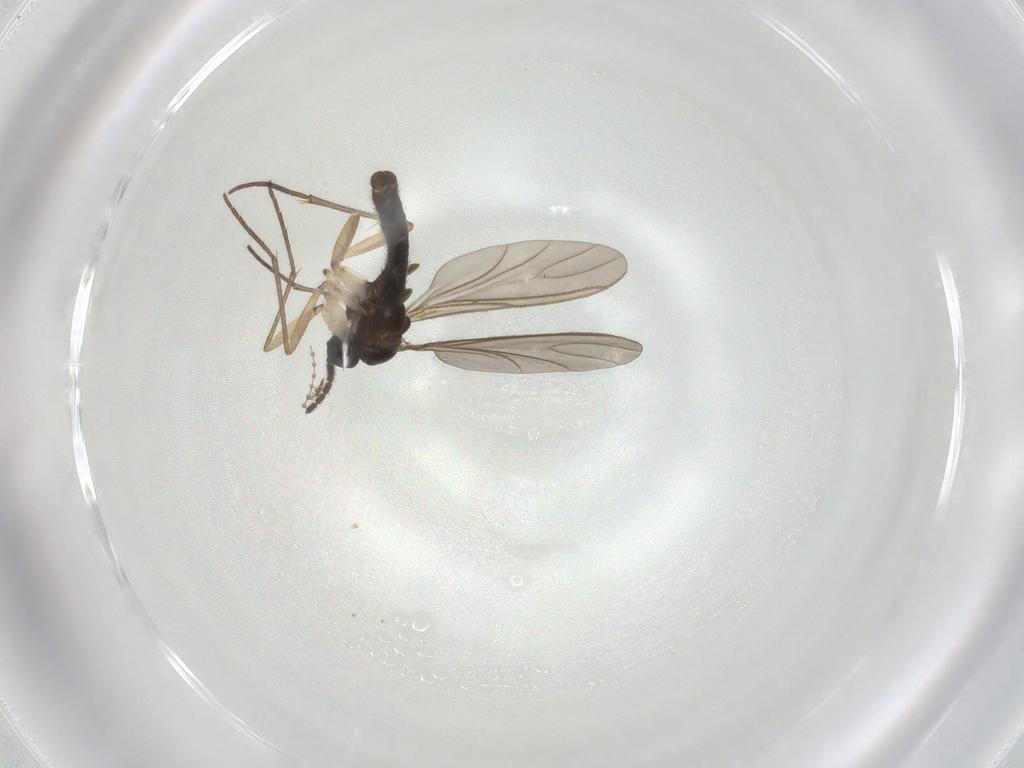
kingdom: Animalia
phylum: Arthropoda
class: Insecta
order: Diptera
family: Sciaridae
